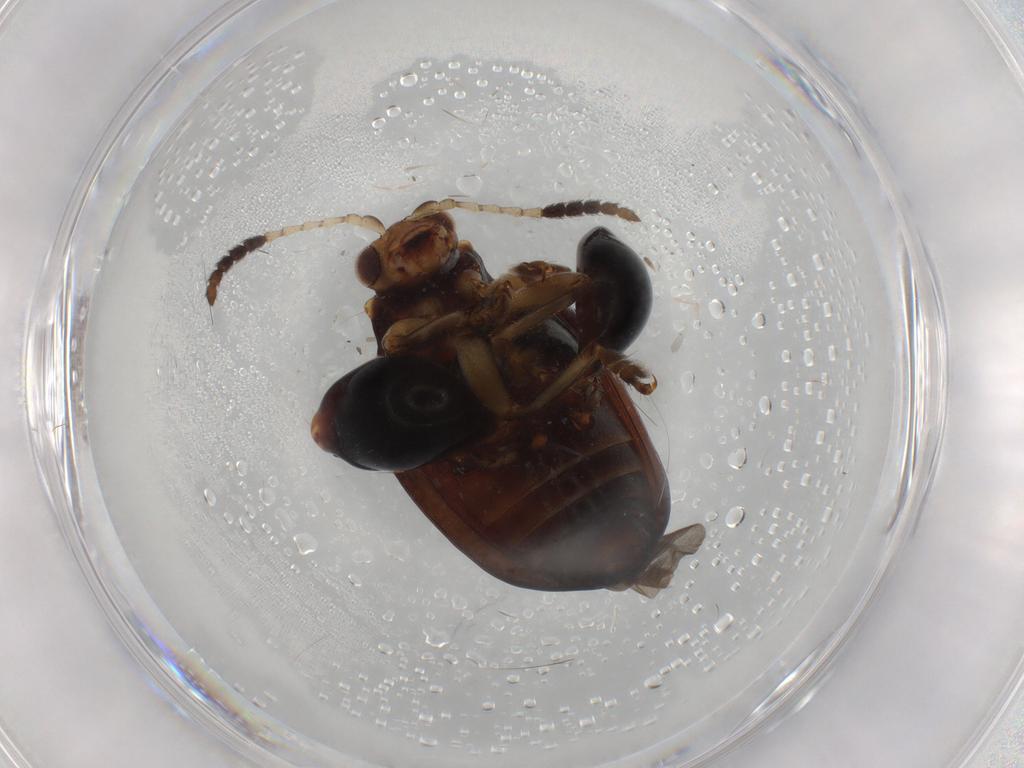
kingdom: Animalia
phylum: Arthropoda
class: Insecta
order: Coleoptera
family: Chrysomelidae
